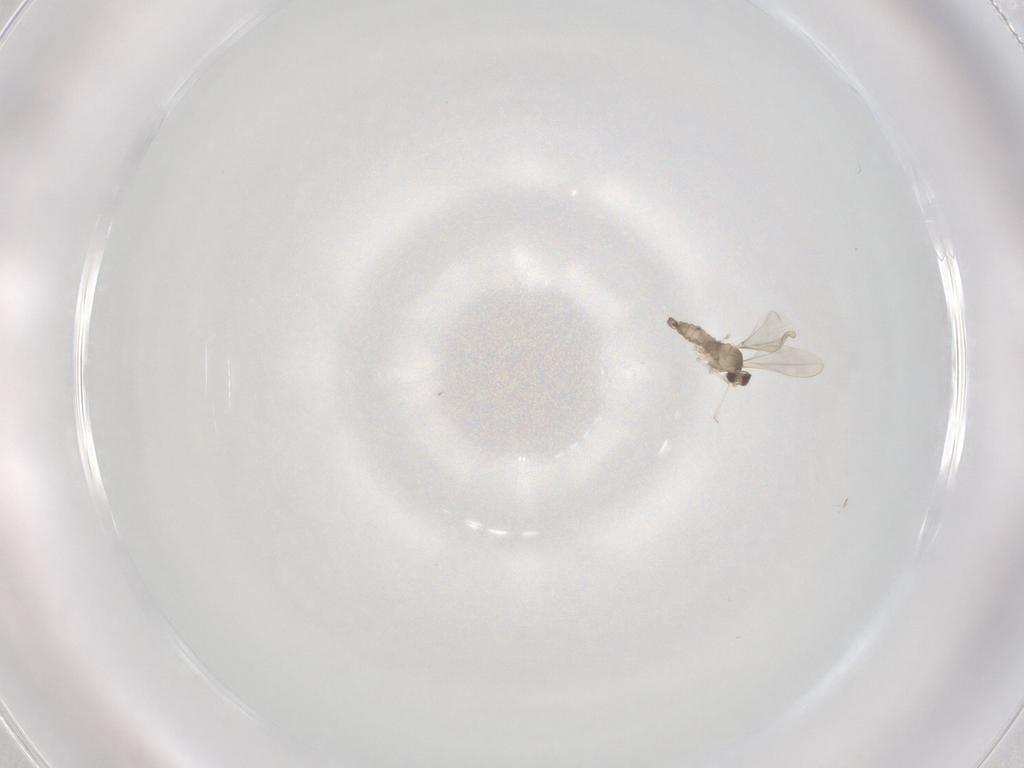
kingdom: Animalia
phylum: Arthropoda
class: Insecta
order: Diptera
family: Cecidomyiidae
